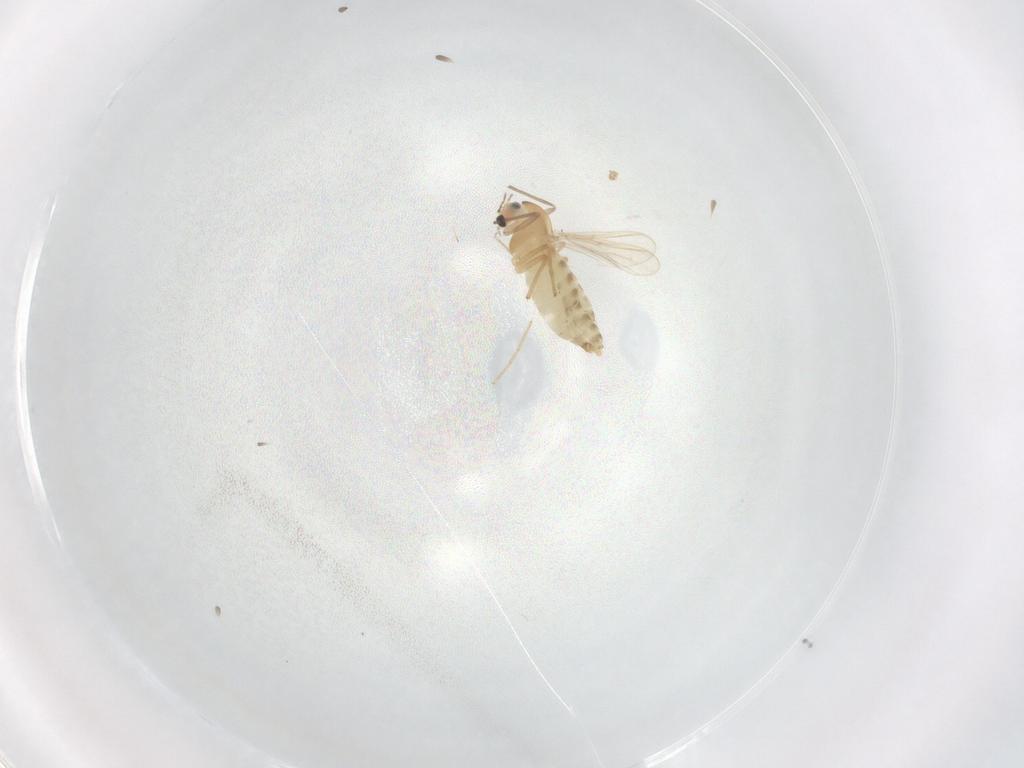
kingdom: Animalia
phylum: Arthropoda
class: Insecta
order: Diptera
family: Chironomidae
